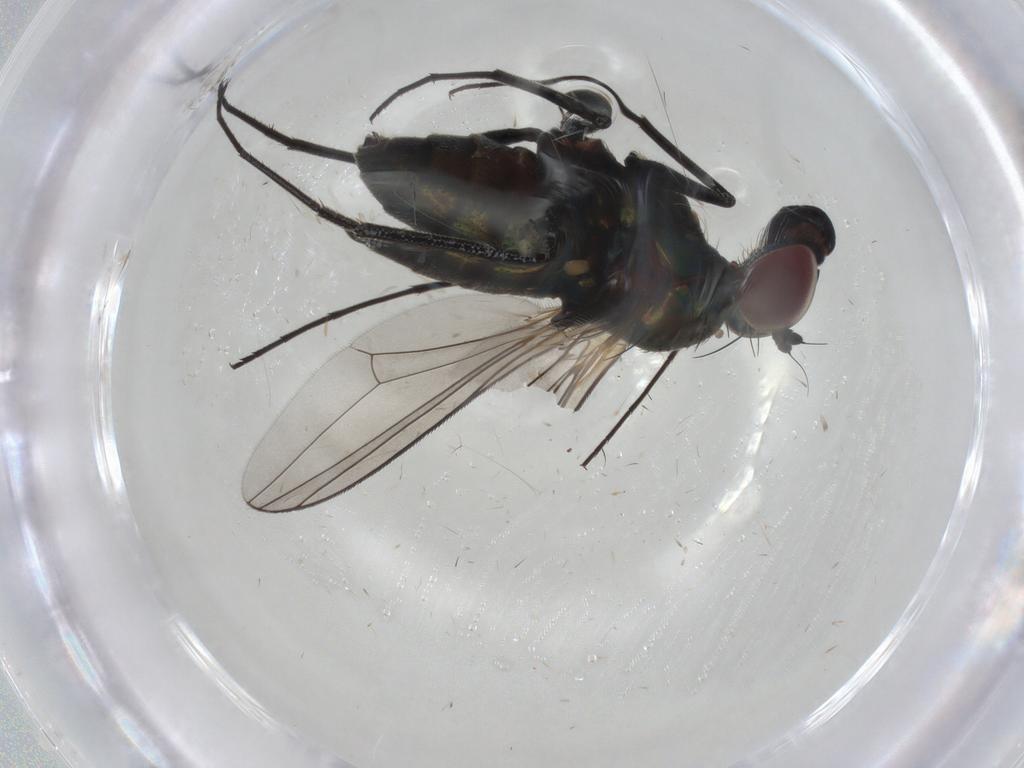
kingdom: Animalia
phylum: Arthropoda
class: Insecta
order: Diptera
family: Dolichopodidae
